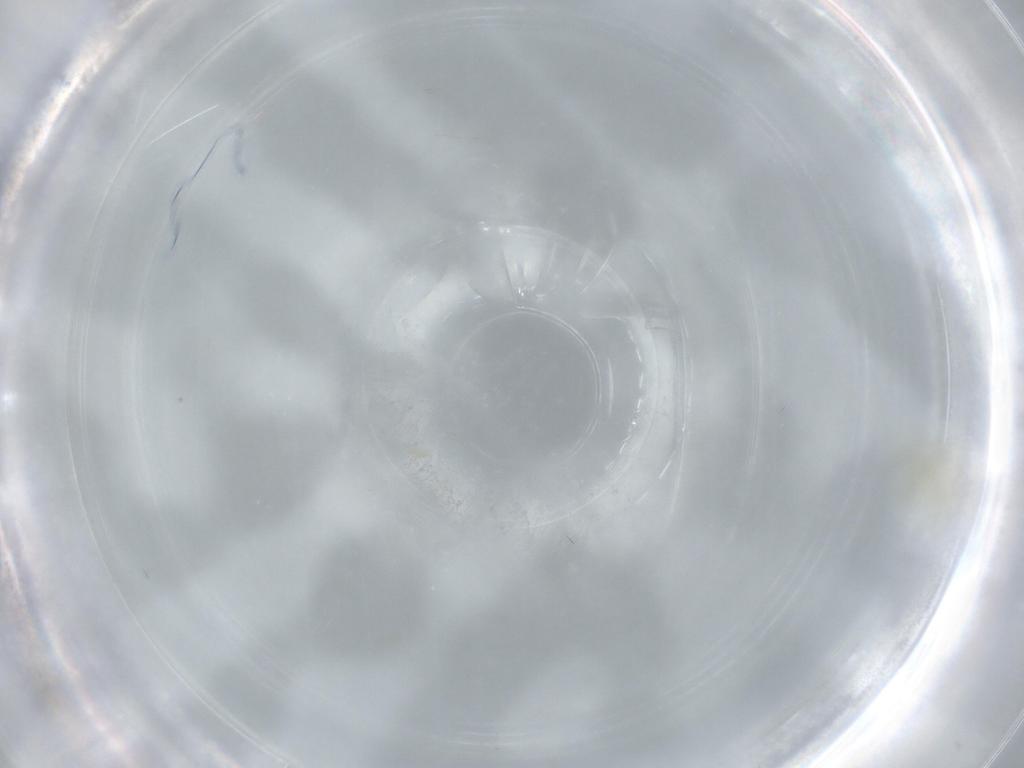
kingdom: Animalia
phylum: Arthropoda
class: Insecta
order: Hemiptera
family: Aleyrodidae
